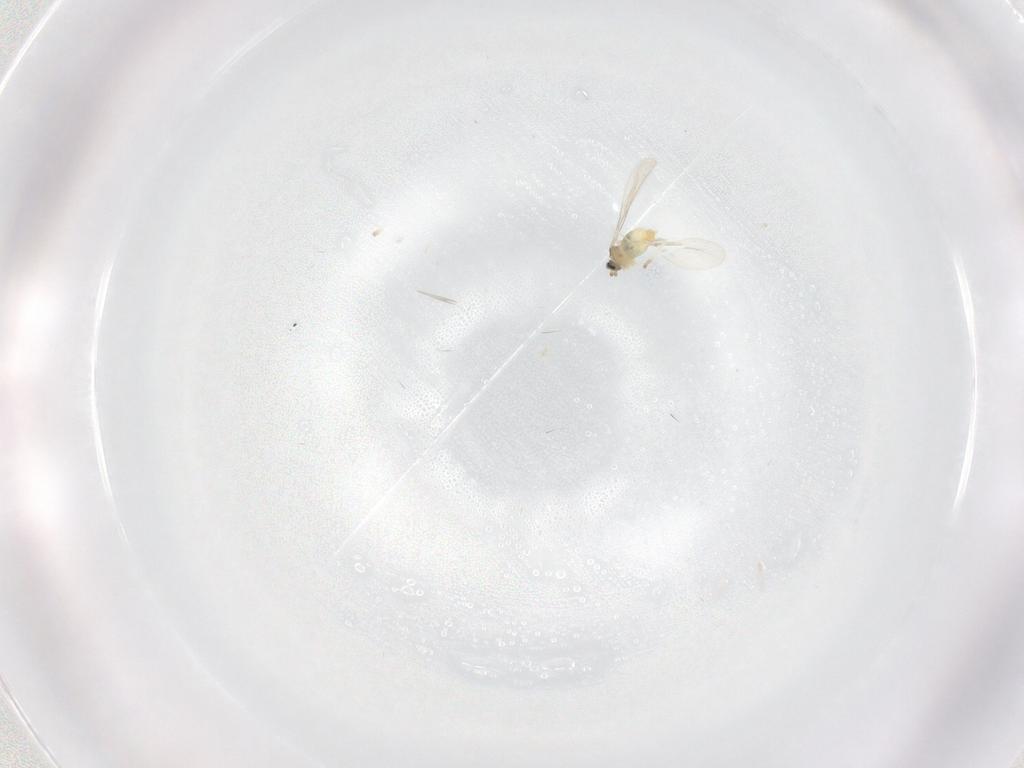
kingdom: Animalia
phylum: Arthropoda
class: Insecta
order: Diptera
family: Cecidomyiidae
